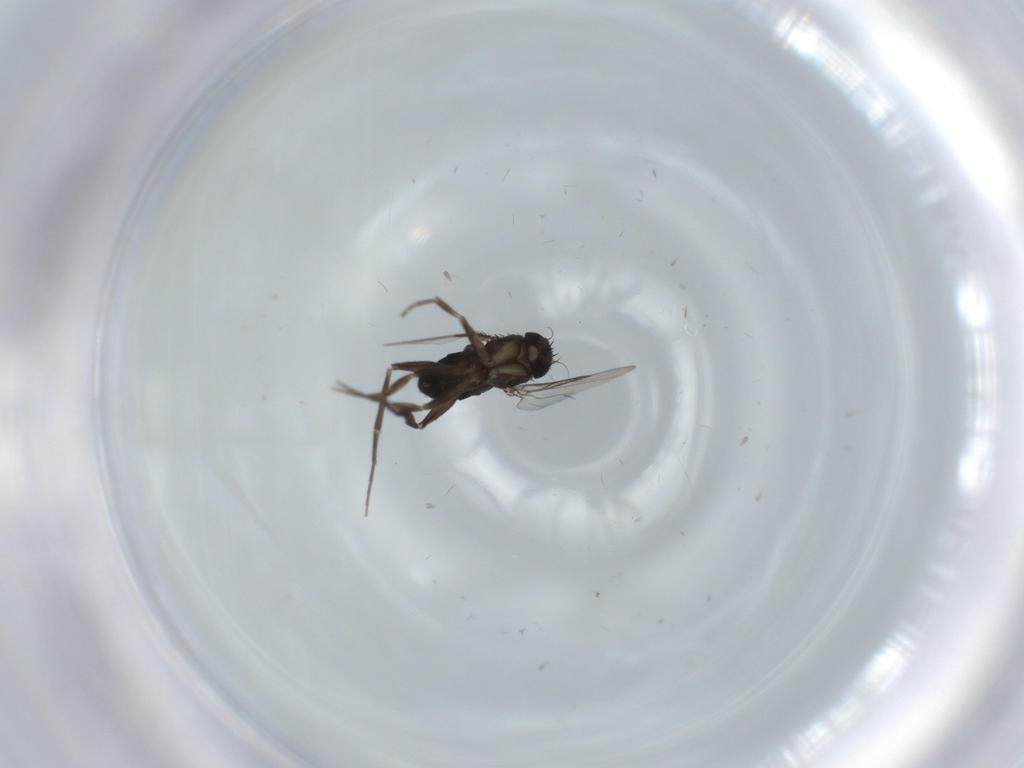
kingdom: Animalia
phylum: Arthropoda
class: Insecta
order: Diptera
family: Phoridae
